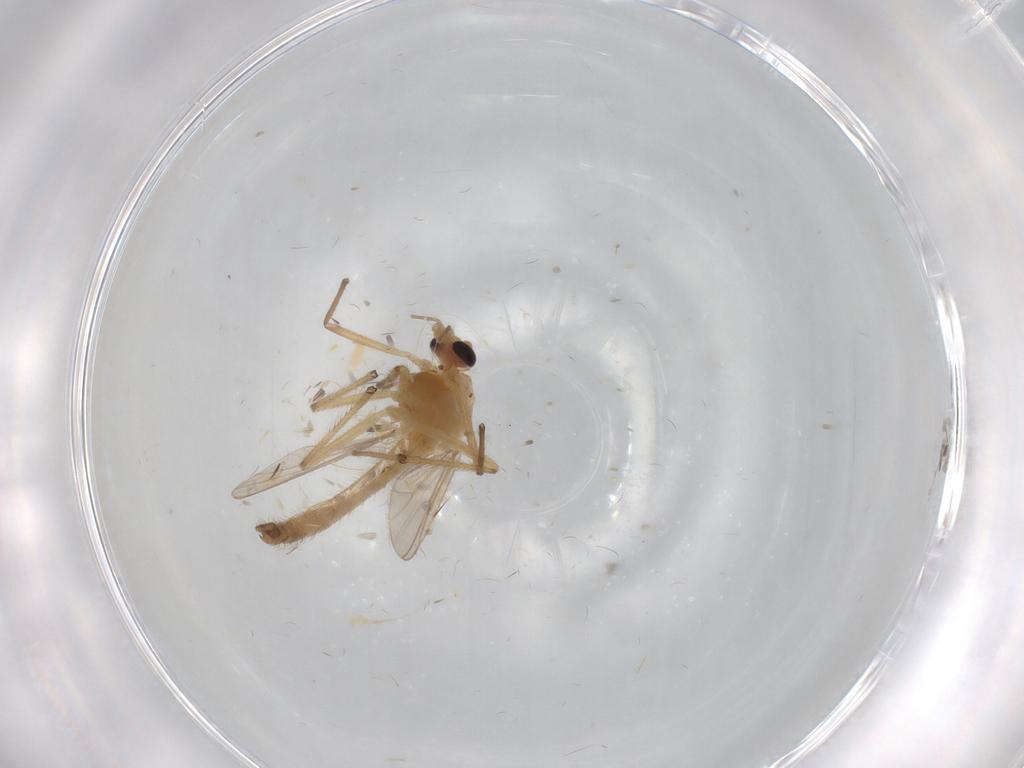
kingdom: Animalia
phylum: Arthropoda
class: Insecta
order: Diptera
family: Chironomidae
